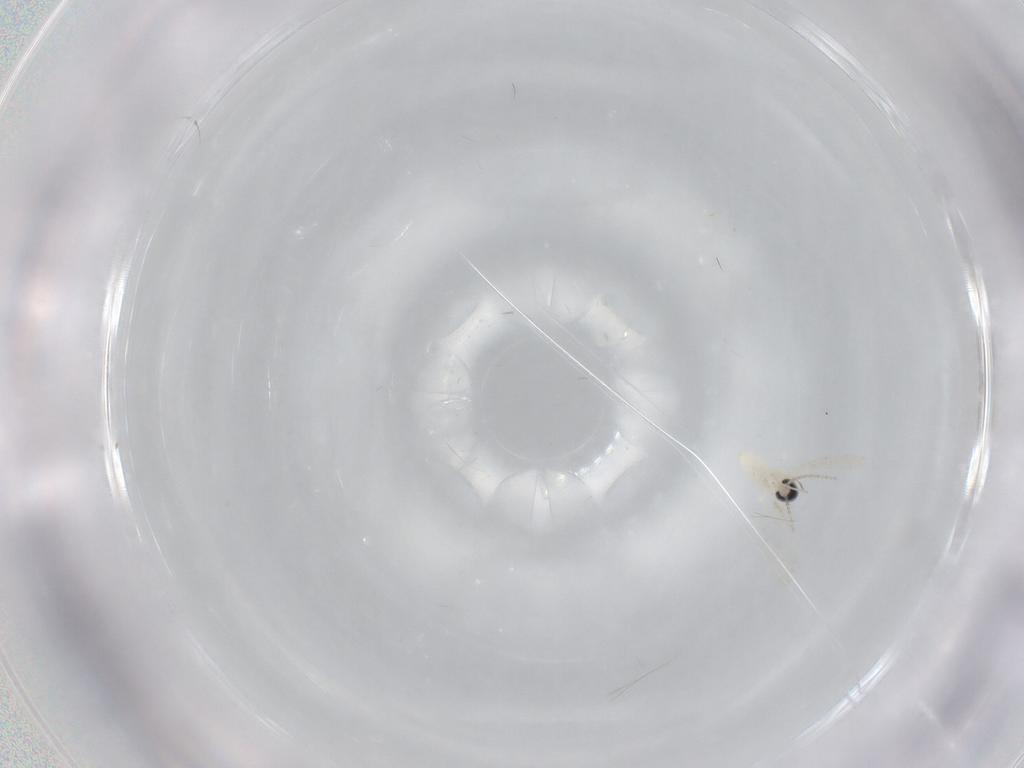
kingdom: Animalia
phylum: Arthropoda
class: Insecta
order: Diptera
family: Cecidomyiidae
